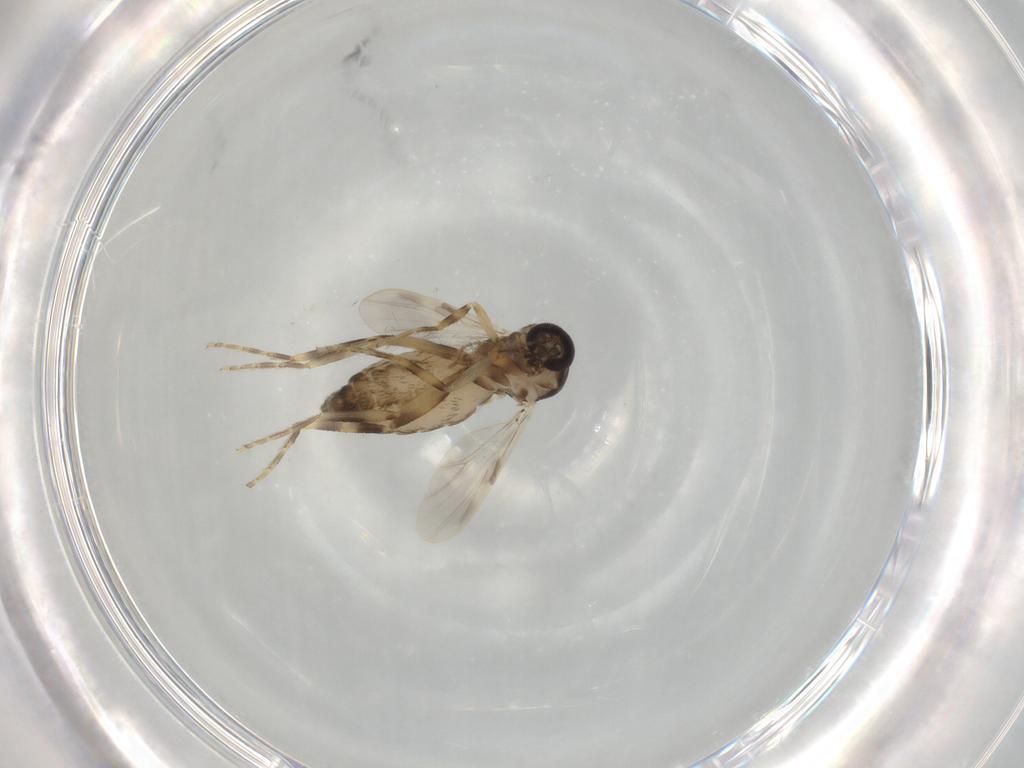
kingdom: Animalia
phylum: Arthropoda
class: Insecta
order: Diptera
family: Ceratopogonidae
